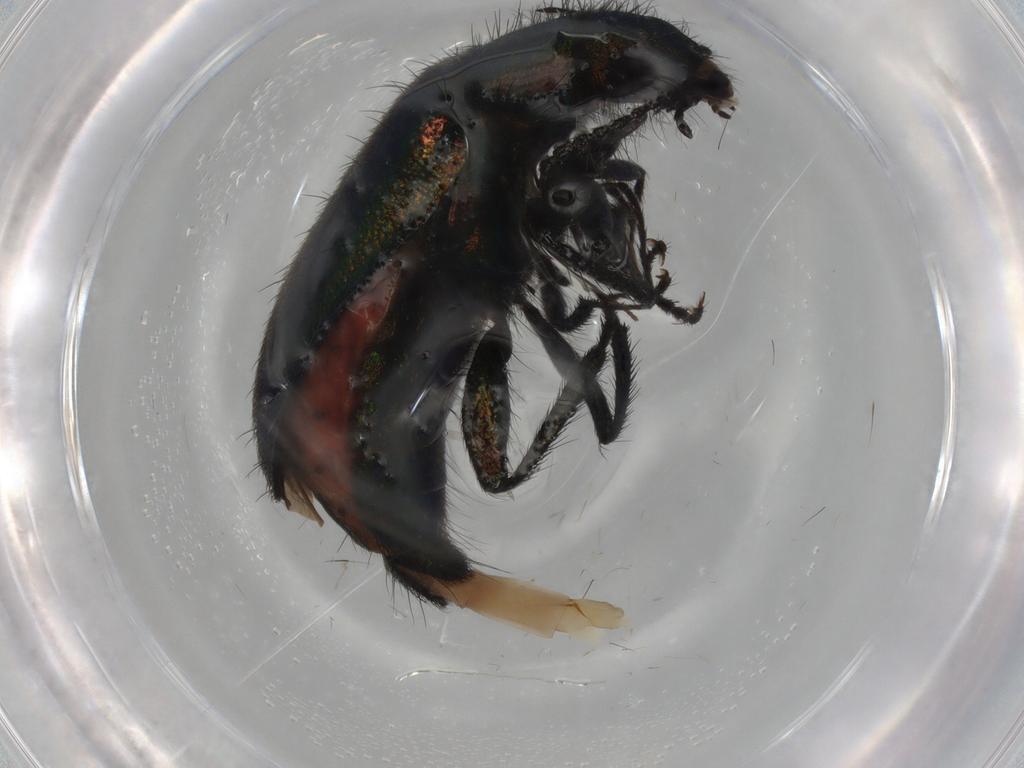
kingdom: Animalia
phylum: Arthropoda
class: Insecta
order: Coleoptera
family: Melyridae
